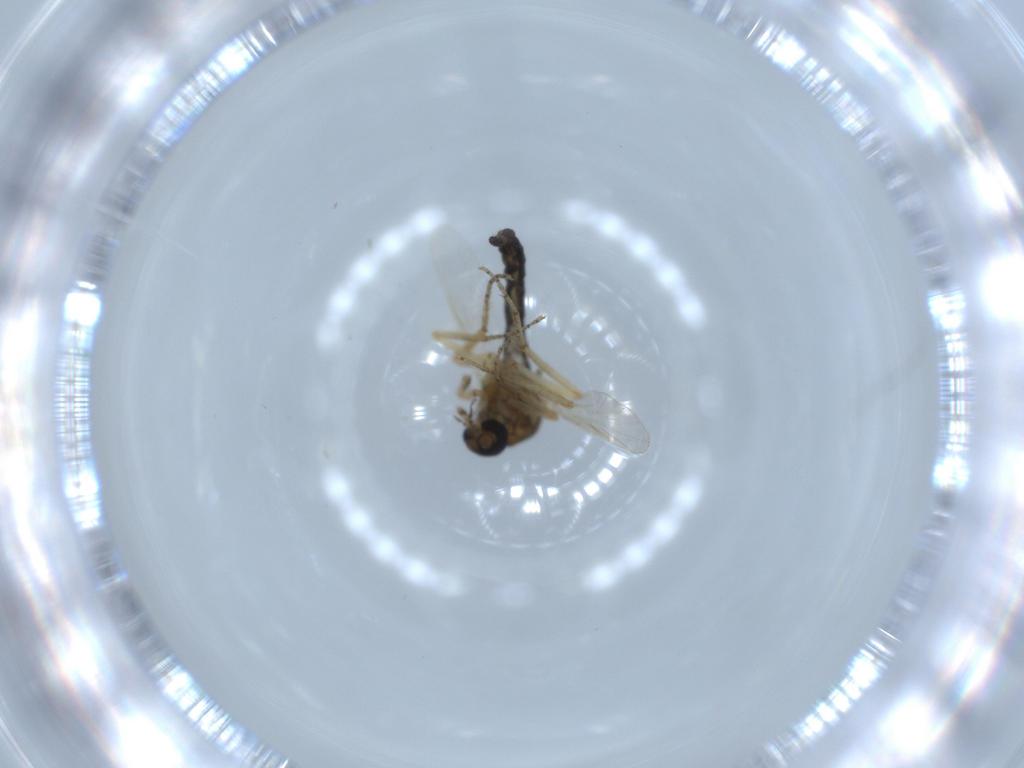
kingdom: Animalia
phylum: Arthropoda
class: Insecta
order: Diptera
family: Ceratopogonidae
